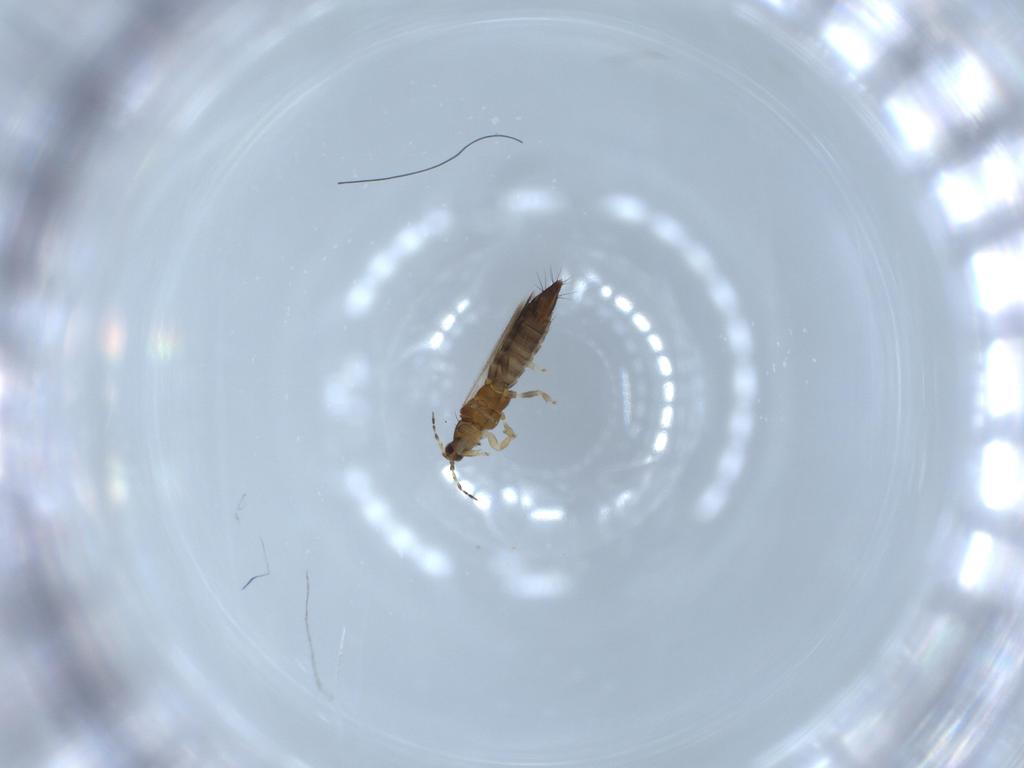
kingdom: Animalia
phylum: Arthropoda
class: Insecta
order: Thysanoptera
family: Thripidae
